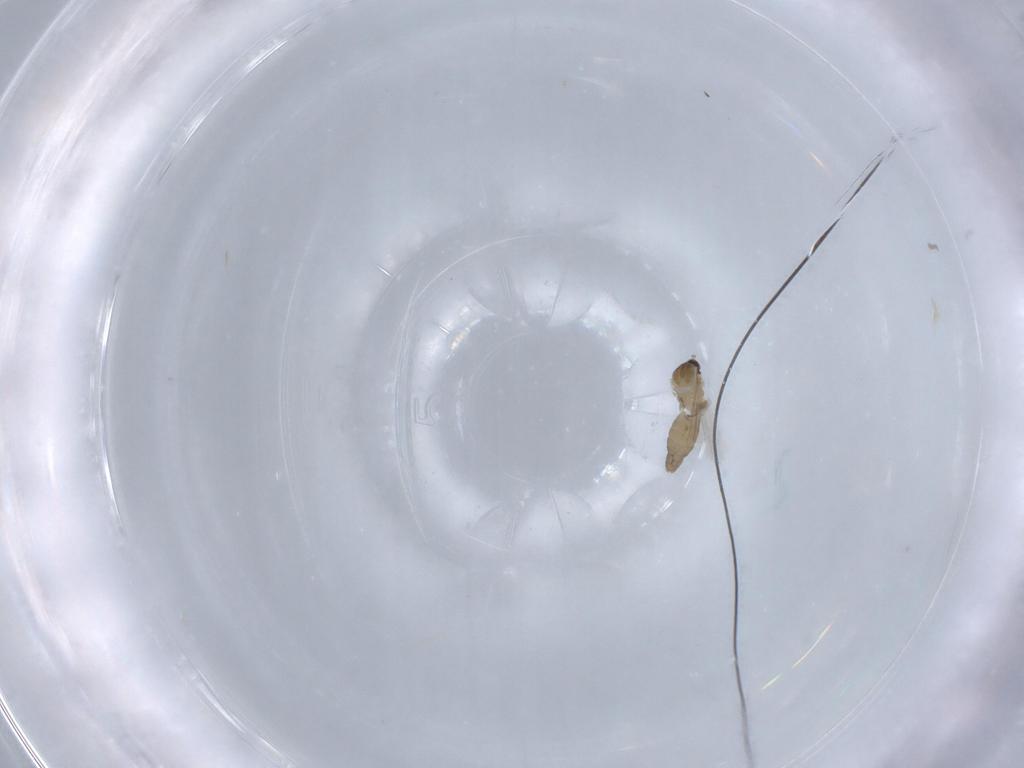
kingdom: Animalia
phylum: Arthropoda
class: Insecta
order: Diptera
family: Cecidomyiidae
